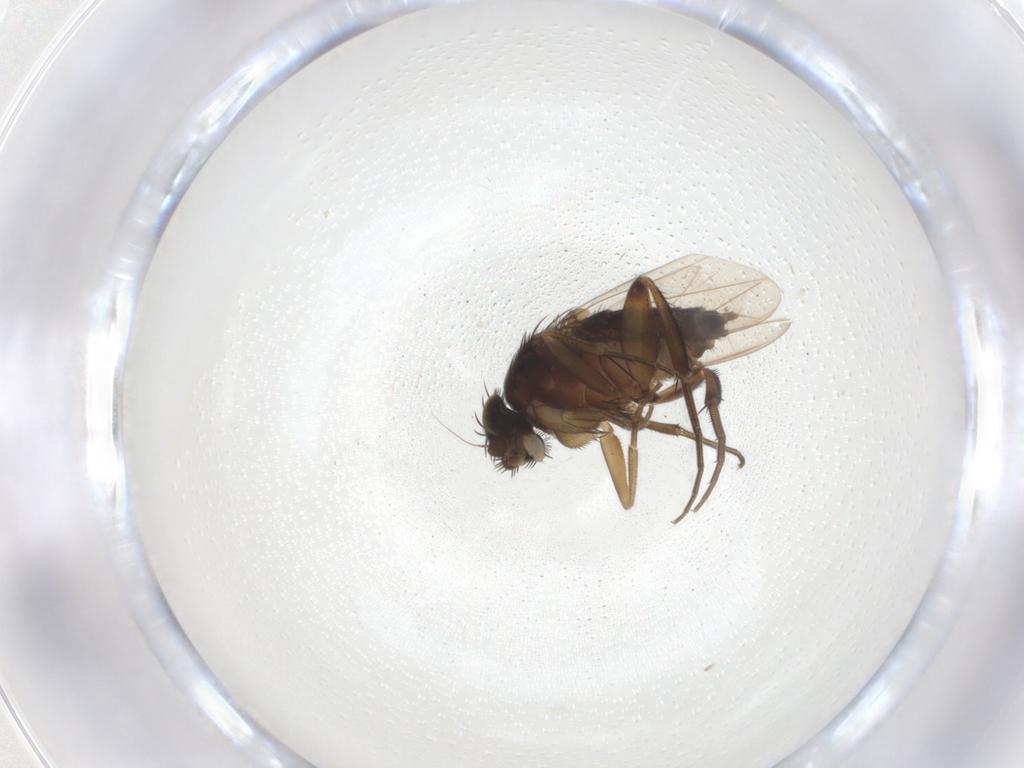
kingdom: Animalia
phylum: Arthropoda
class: Insecta
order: Diptera
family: Phoridae
